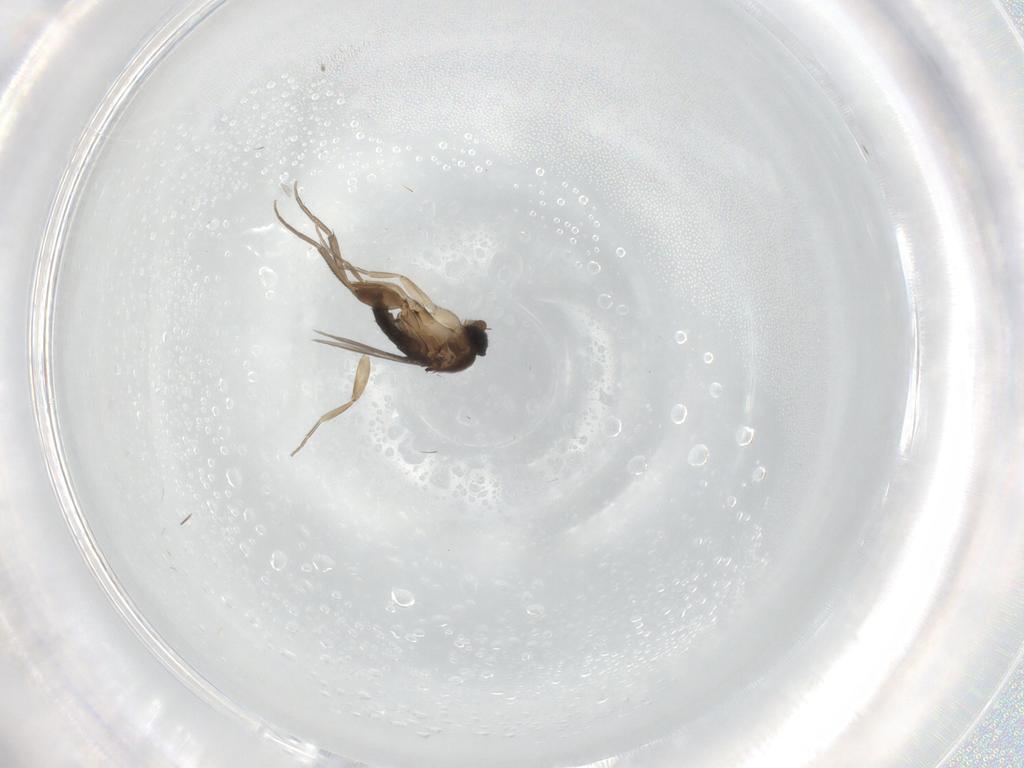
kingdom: Animalia
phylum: Arthropoda
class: Insecta
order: Diptera
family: Phoridae
